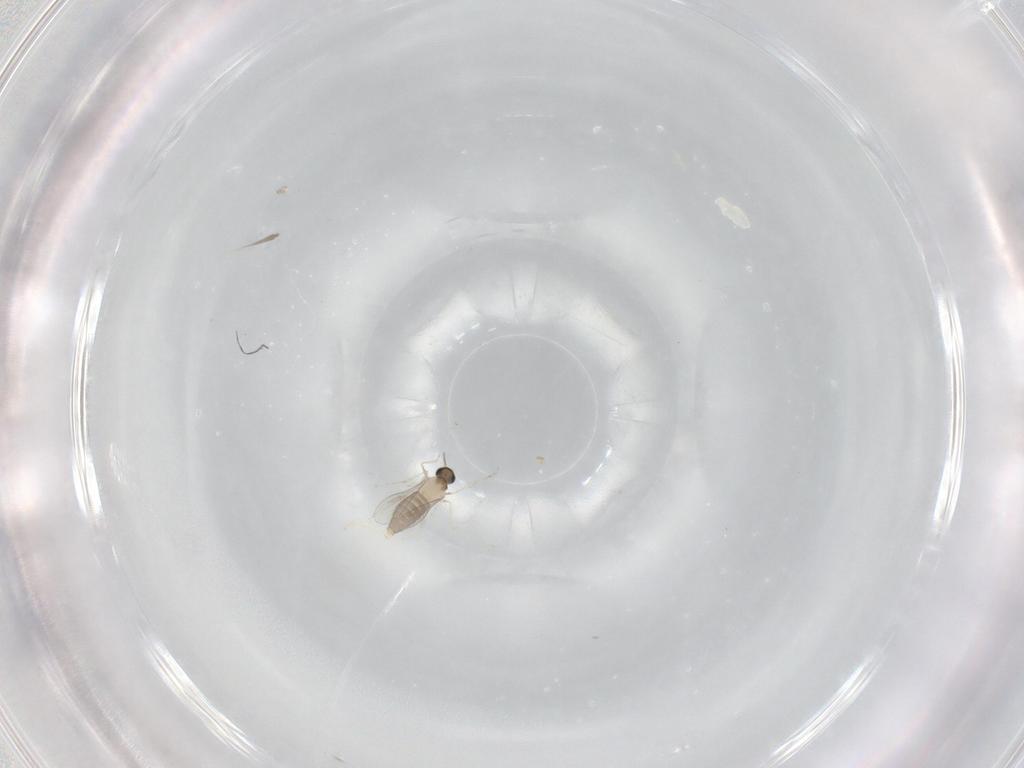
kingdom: Animalia
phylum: Arthropoda
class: Insecta
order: Diptera
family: Cecidomyiidae
